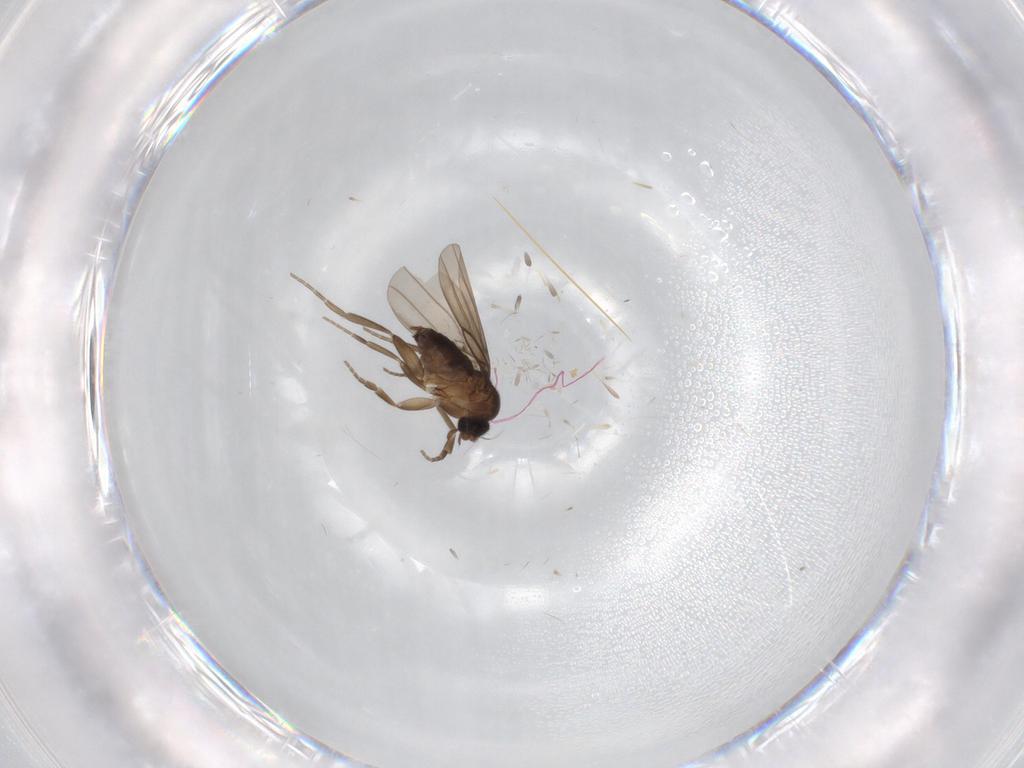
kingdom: Animalia
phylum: Arthropoda
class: Insecta
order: Diptera
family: Phoridae
